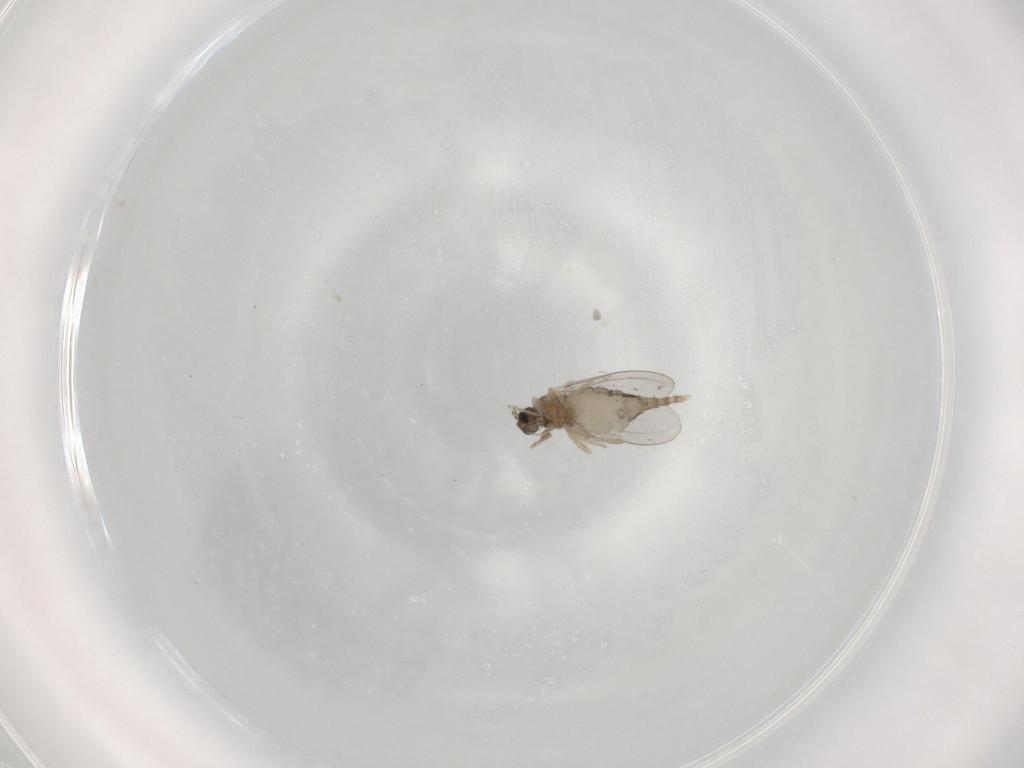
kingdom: Animalia
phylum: Arthropoda
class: Insecta
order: Diptera
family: Cecidomyiidae
